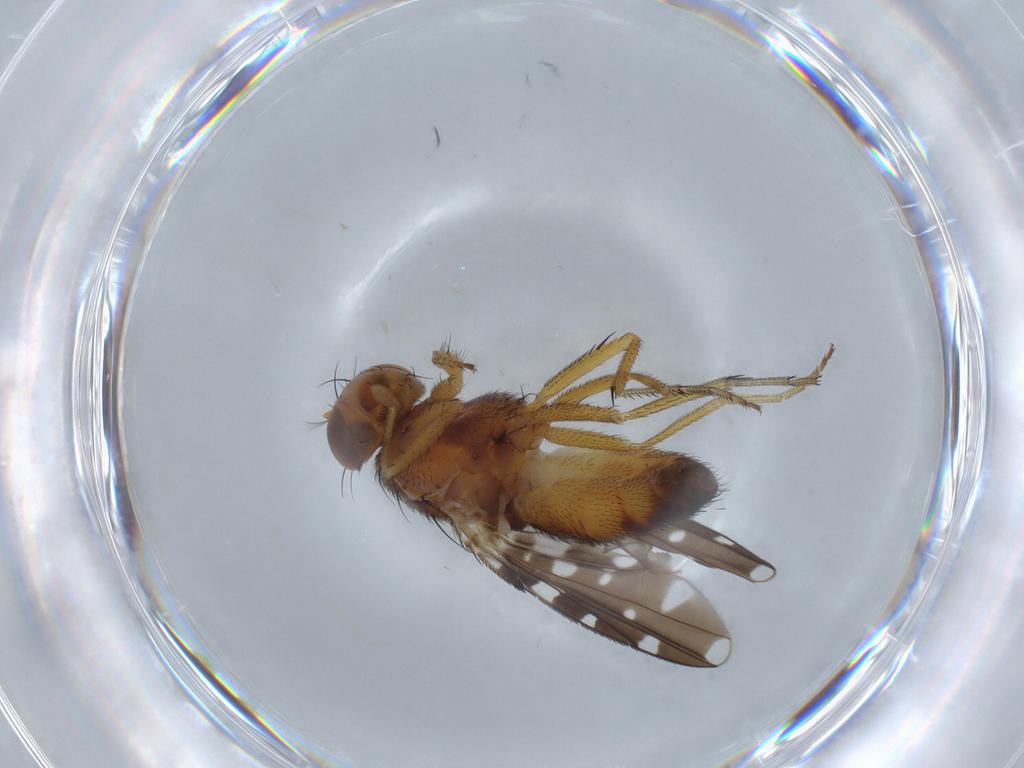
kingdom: Animalia
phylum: Arthropoda
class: Insecta
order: Diptera
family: Ephydridae
